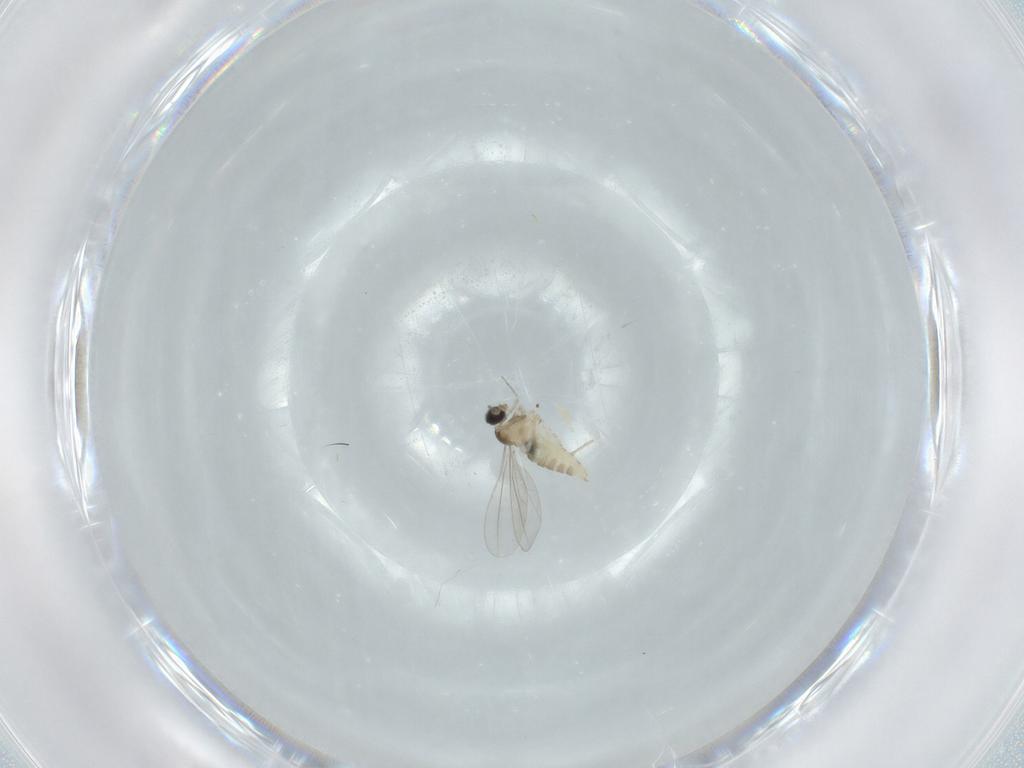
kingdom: Animalia
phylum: Arthropoda
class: Insecta
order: Diptera
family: Cecidomyiidae
